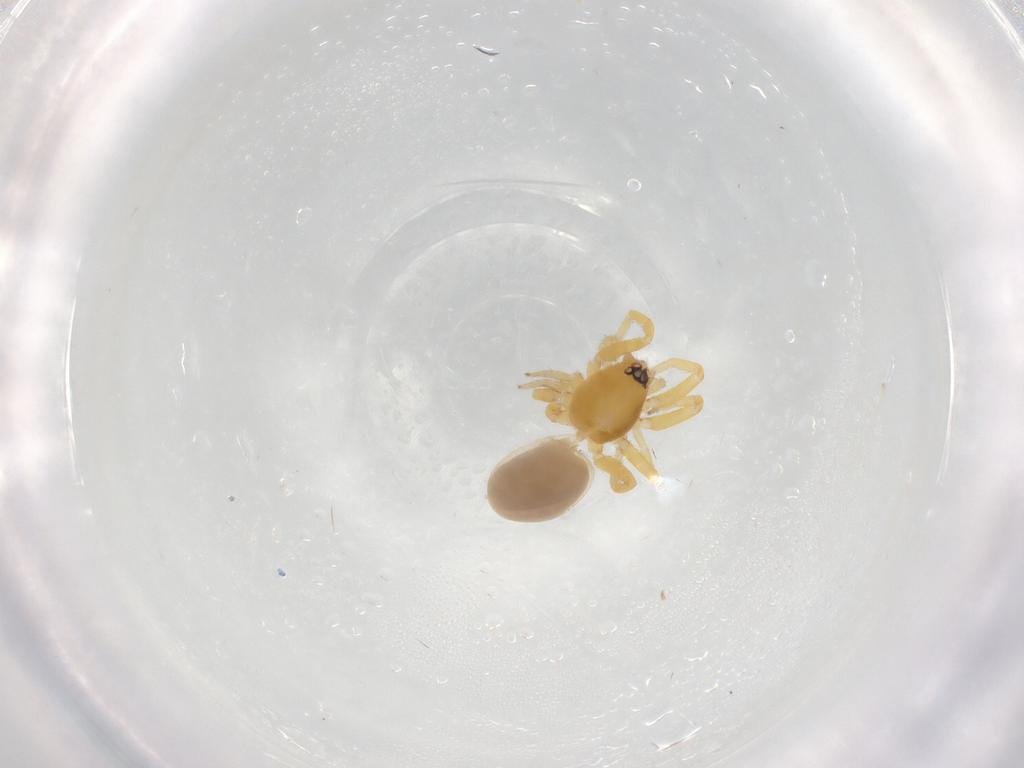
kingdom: Animalia
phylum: Arthropoda
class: Arachnida
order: Araneae
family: Oonopidae
